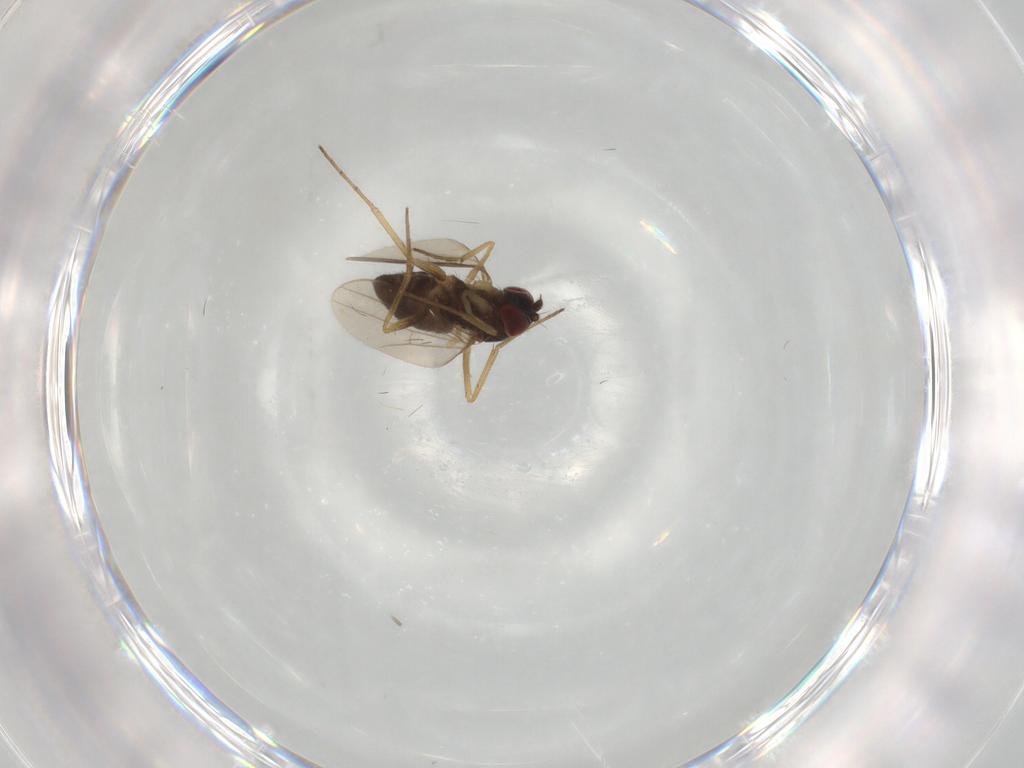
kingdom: Animalia
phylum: Arthropoda
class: Insecta
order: Diptera
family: Dolichopodidae
